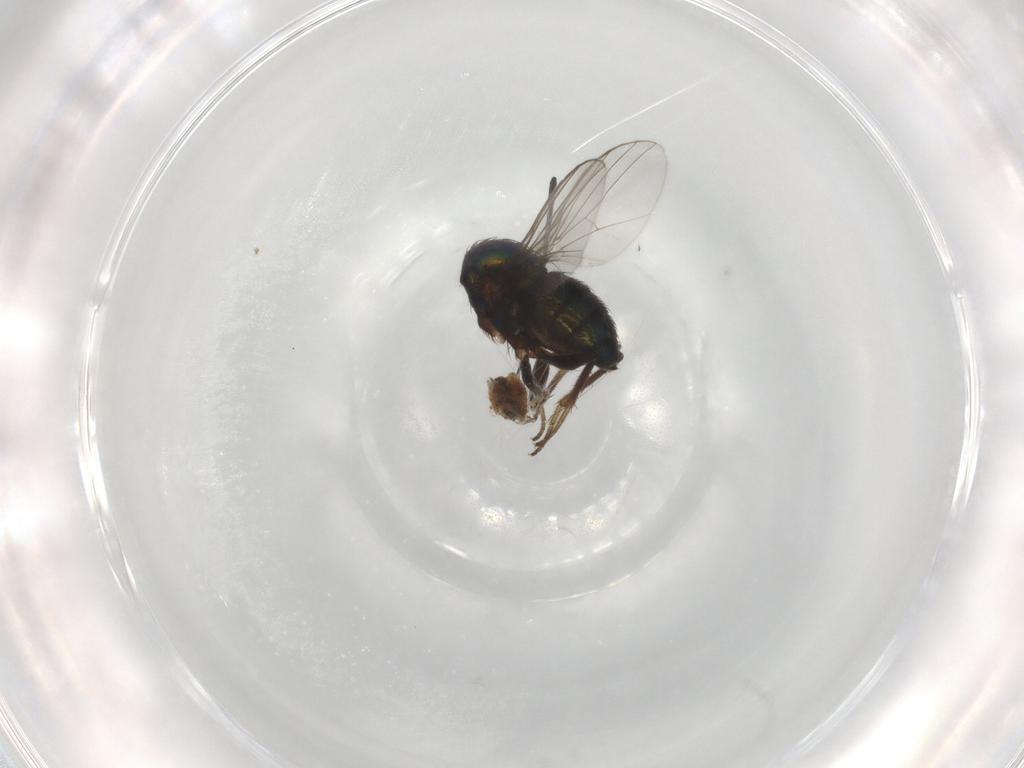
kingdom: Animalia
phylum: Arthropoda
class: Insecta
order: Diptera
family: Dolichopodidae
